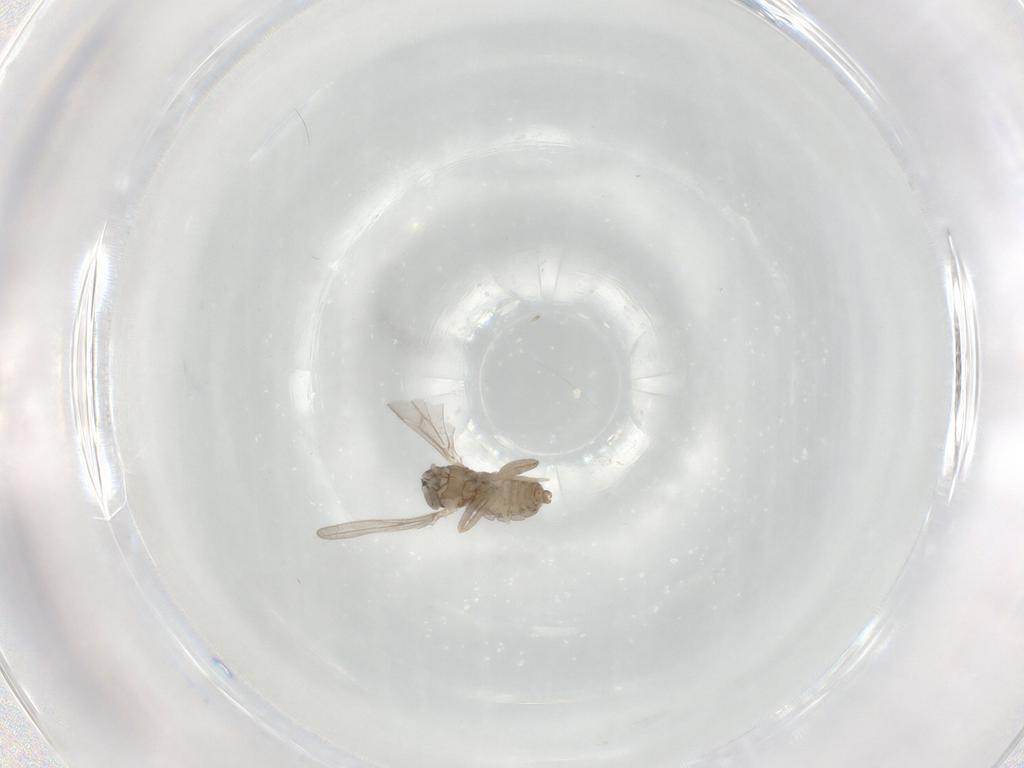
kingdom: Animalia
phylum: Arthropoda
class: Insecta
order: Diptera
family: Cecidomyiidae
